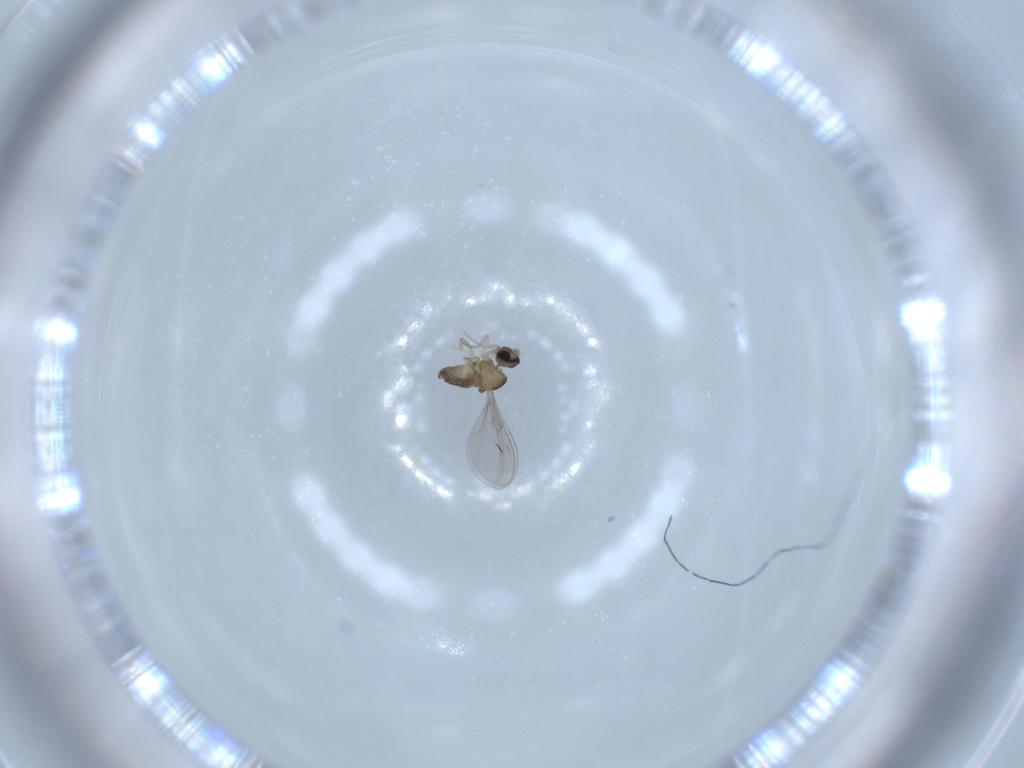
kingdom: Animalia
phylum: Arthropoda
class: Insecta
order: Diptera
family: Cecidomyiidae
